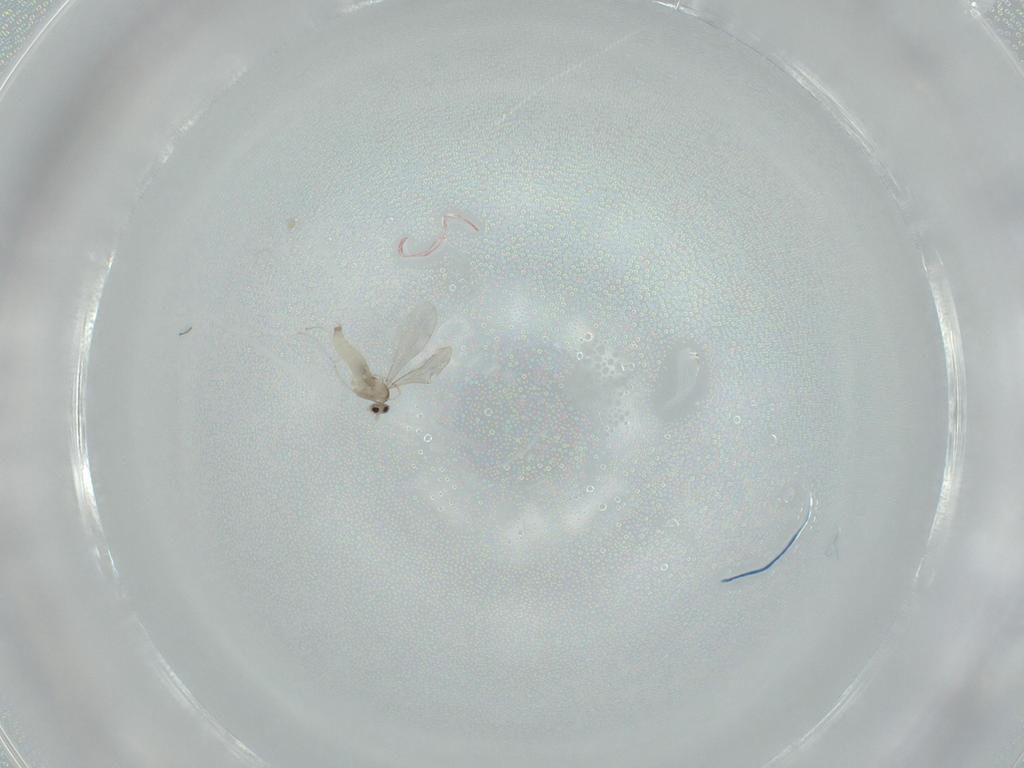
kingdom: Animalia
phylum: Arthropoda
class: Insecta
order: Diptera
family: Cecidomyiidae
